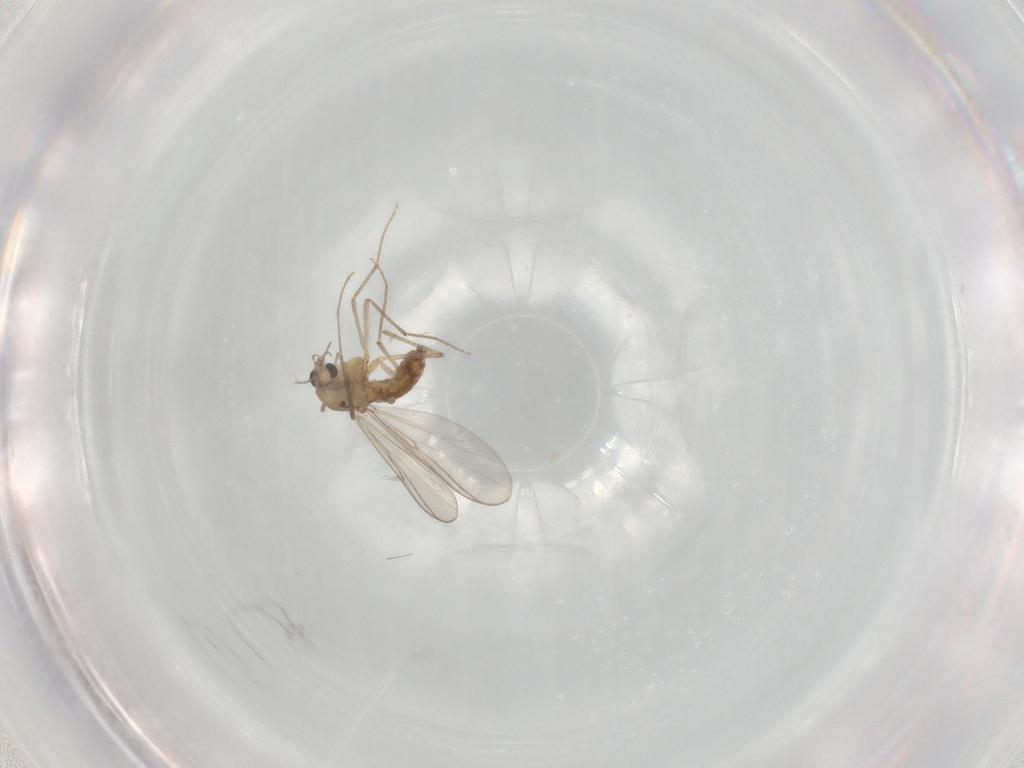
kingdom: Animalia
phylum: Arthropoda
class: Insecta
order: Diptera
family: Chironomidae
